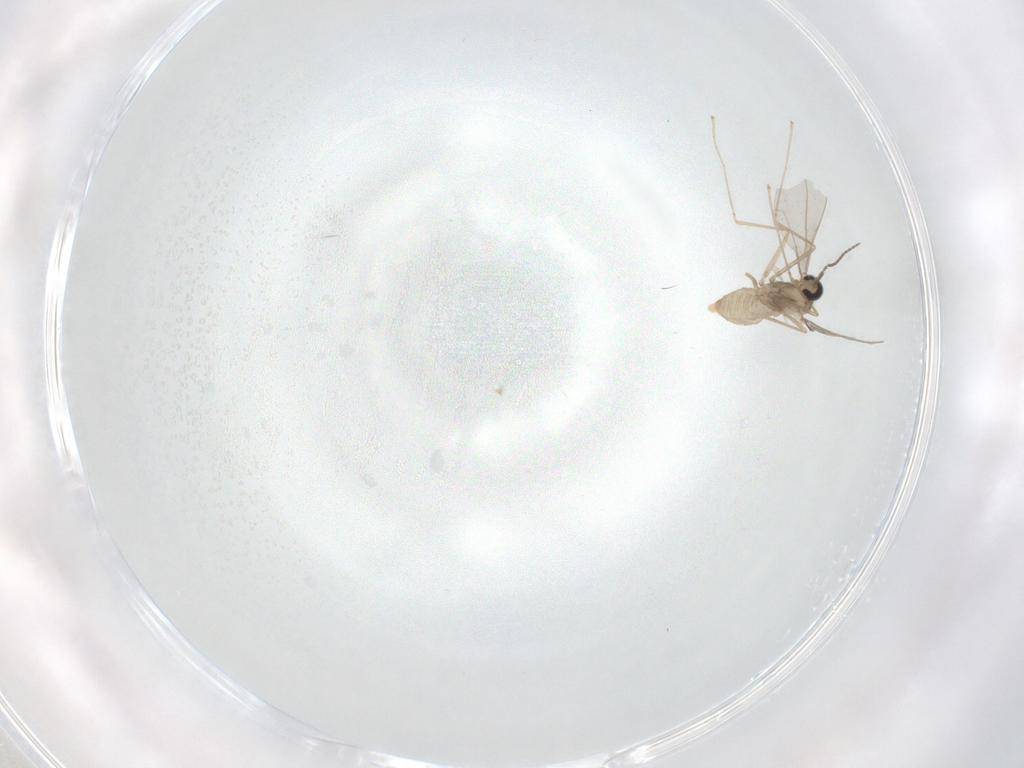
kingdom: Animalia
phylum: Arthropoda
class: Insecta
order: Diptera
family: Cecidomyiidae
